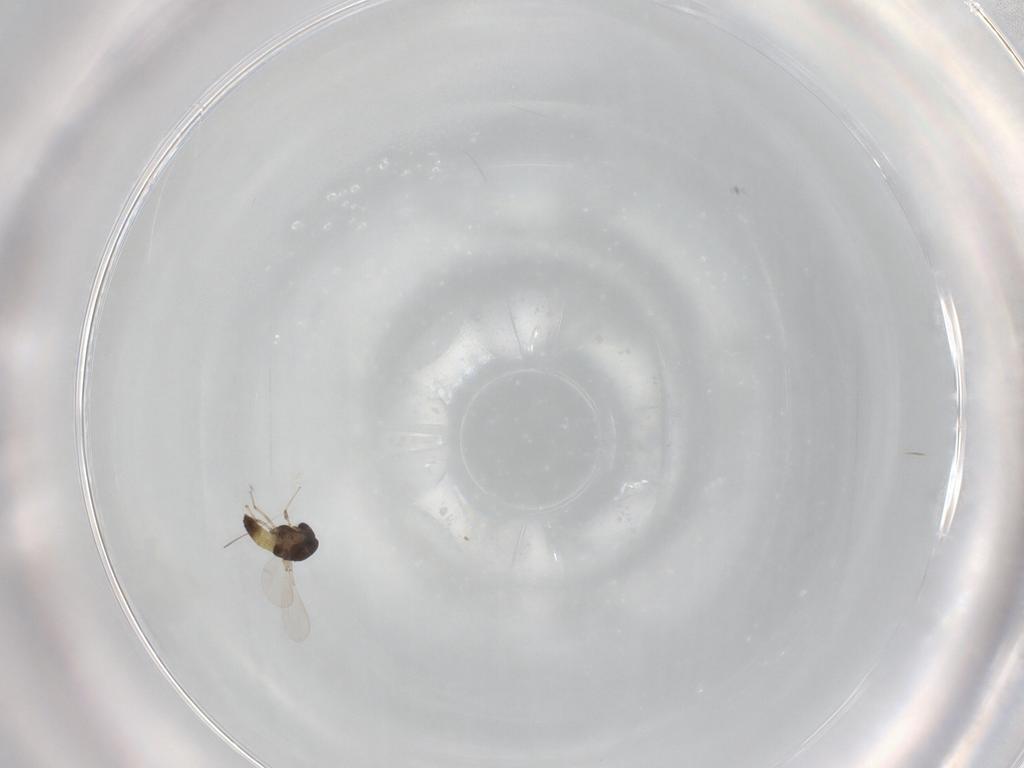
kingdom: Animalia
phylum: Arthropoda
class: Insecta
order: Diptera
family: Chironomidae
